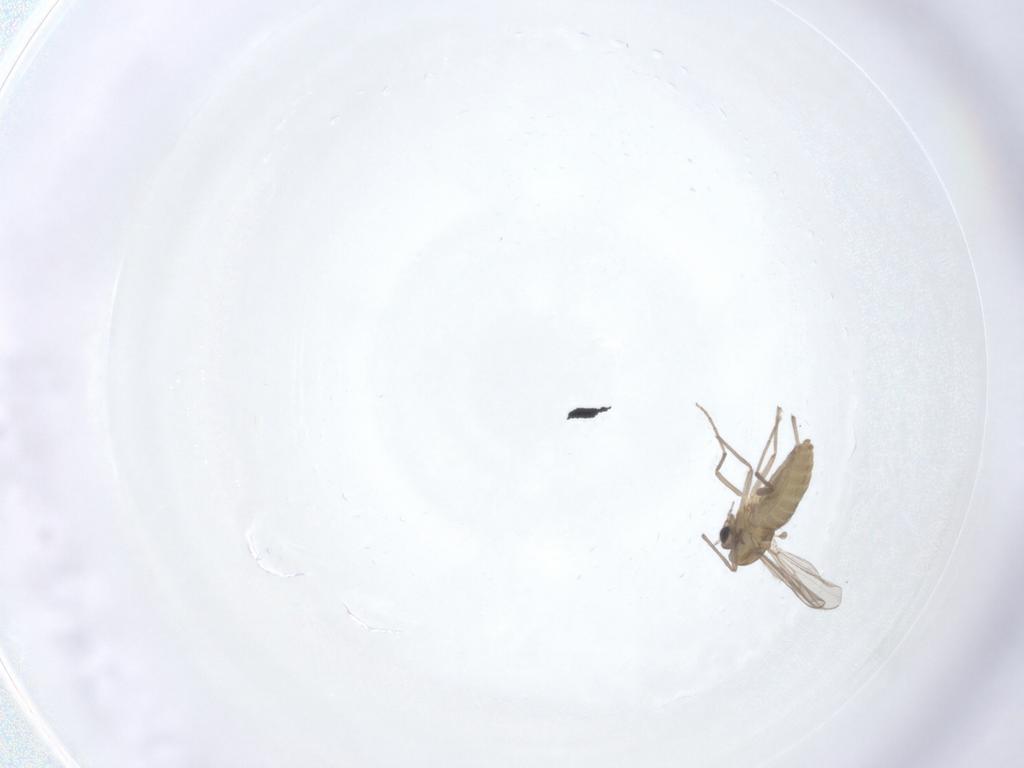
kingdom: Animalia
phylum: Arthropoda
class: Insecta
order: Diptera
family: Chironomidae
